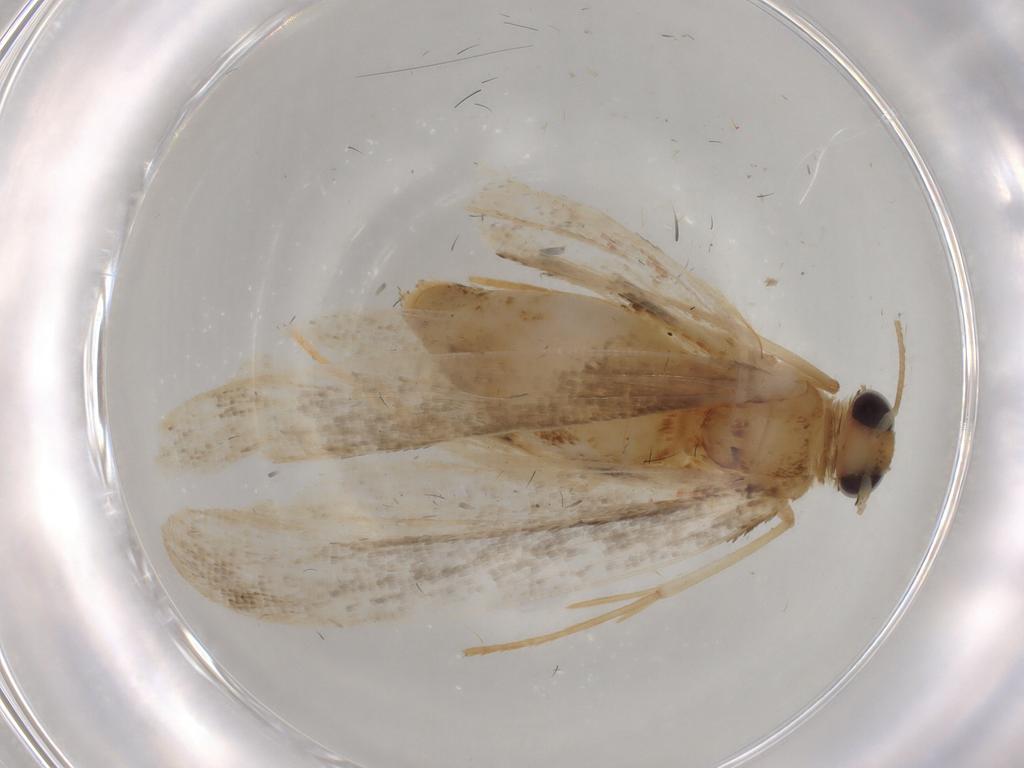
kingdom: Animalia
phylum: Arthropoda
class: Insecta
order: Lepidoptera
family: Erebidae
